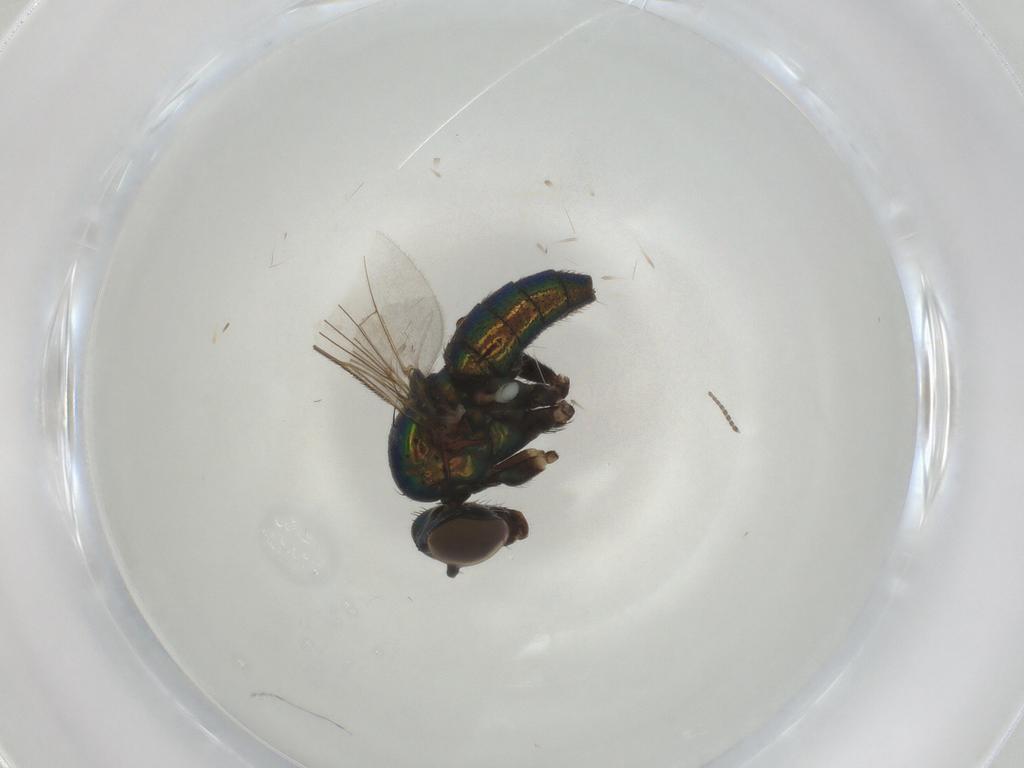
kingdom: Animalia
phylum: Arthropoda
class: Insecta
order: Diptera
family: Dolichopodidae
